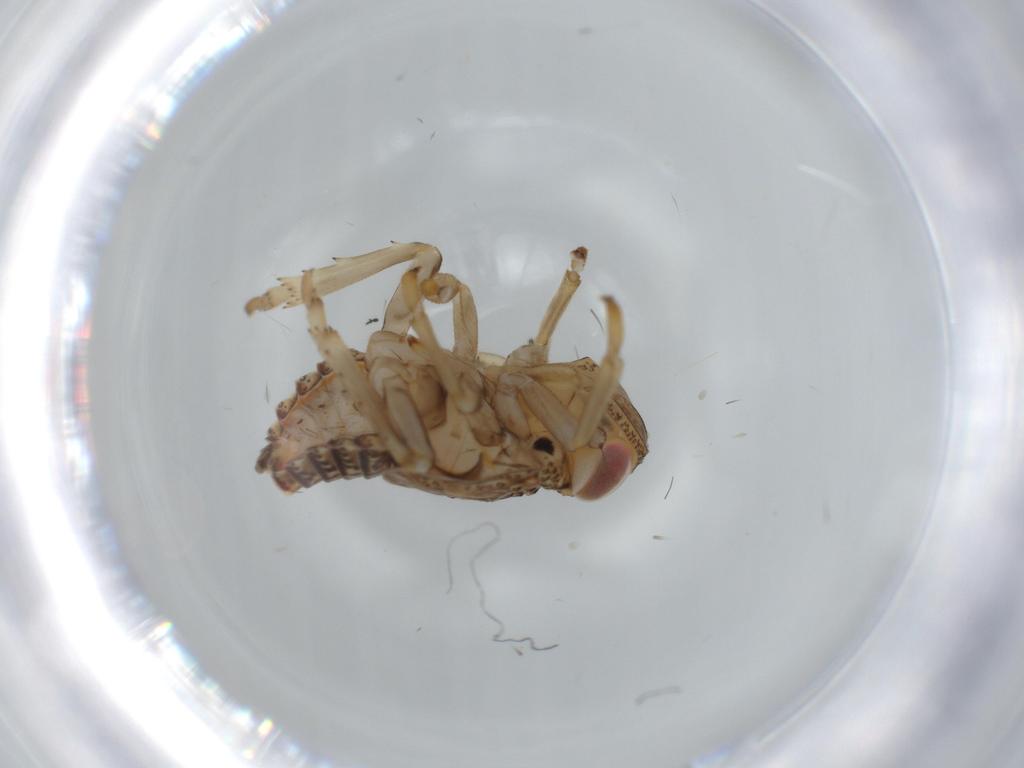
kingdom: Animalia
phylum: Arthropoda
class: Insecta
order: Hemiptera
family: Issidae
